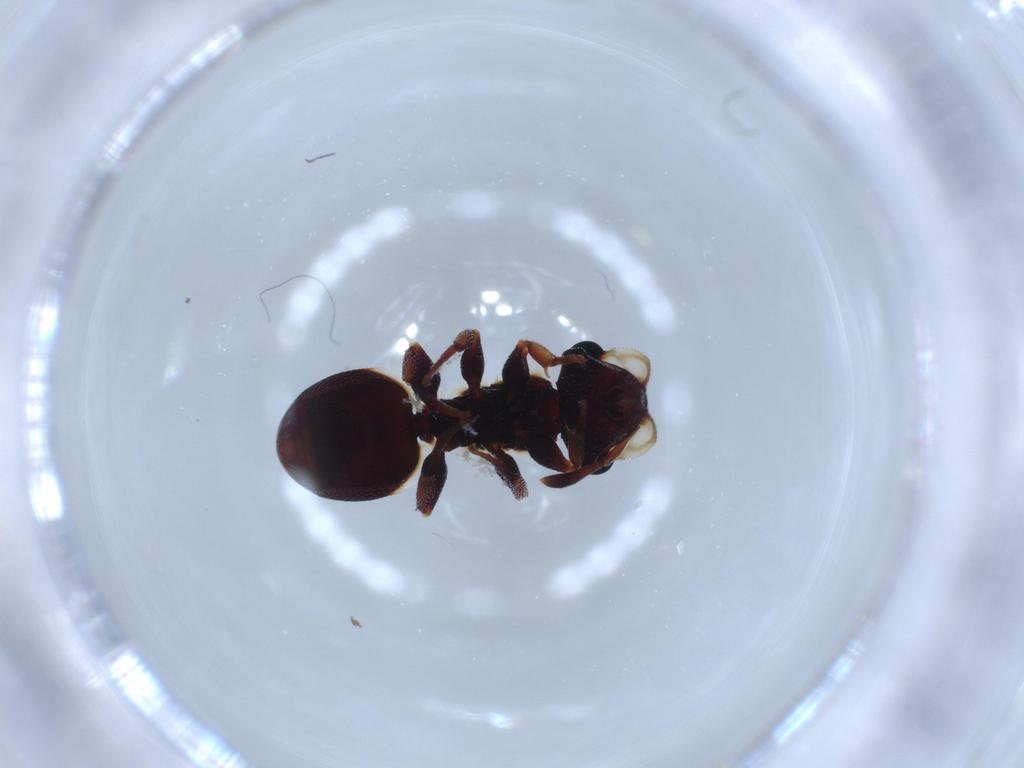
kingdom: Animalia
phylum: Arthropoda
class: Insecta
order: Hymenoptera
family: Formicidae
